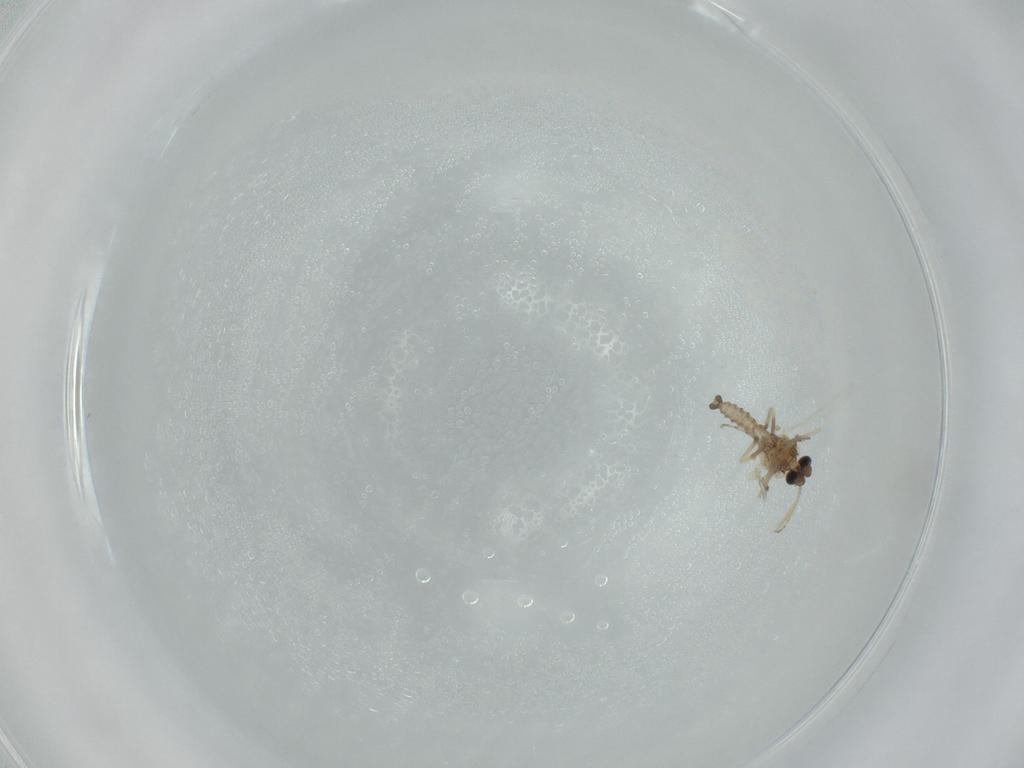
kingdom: Animalia
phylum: Arthropoda
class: Insecta
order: Diptera
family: Ceratopogonidae
